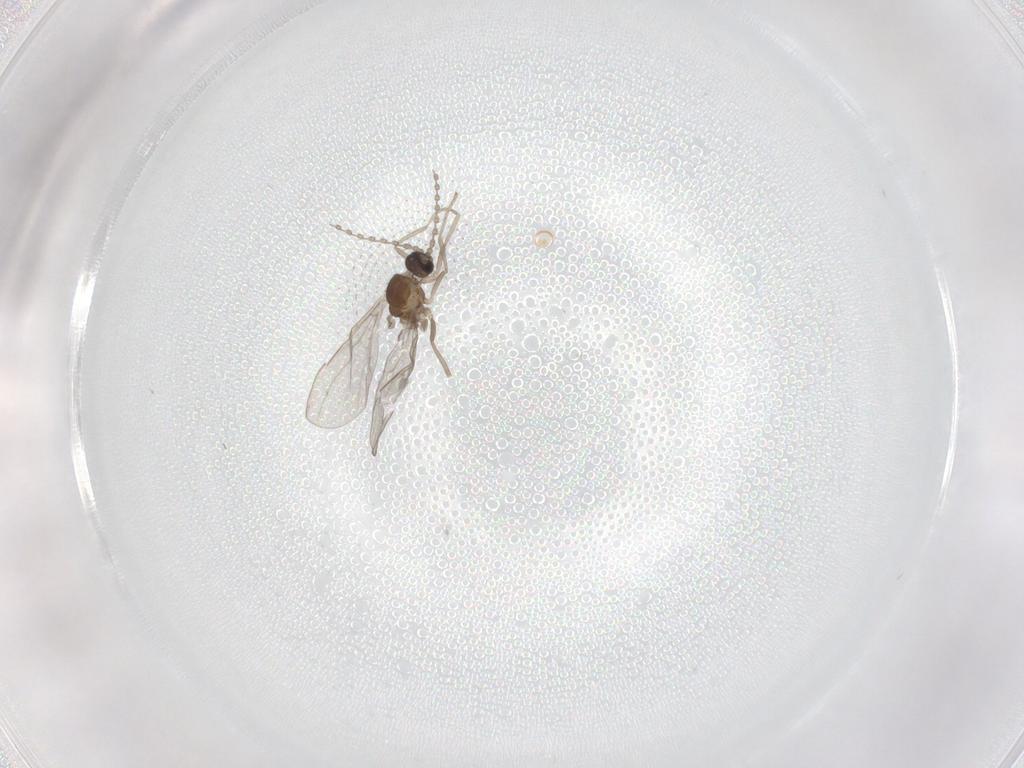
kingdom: Animalia
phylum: Arthropoda
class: Insecta
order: Diptera
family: Cecidomyiidae
